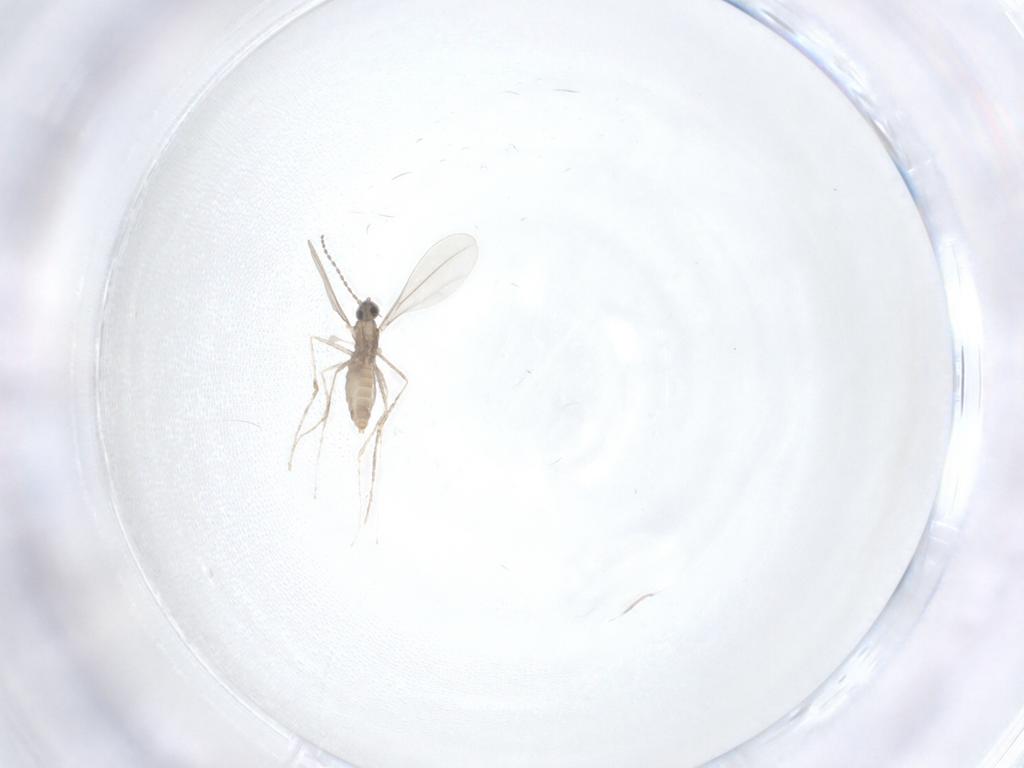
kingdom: Animalia
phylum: Arthropoda
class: Insecta
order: Diptera
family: Cecidomyiidae
